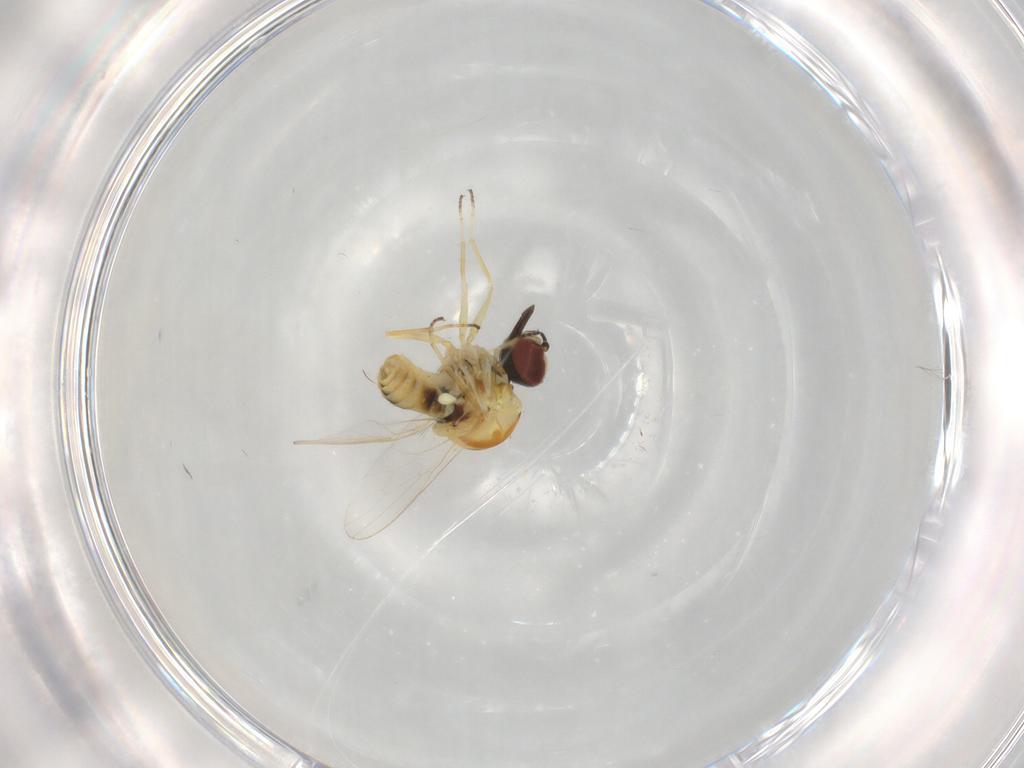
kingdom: Animalia
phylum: Arthropoda
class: Insecta
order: Diptera
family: Bombyliidae
